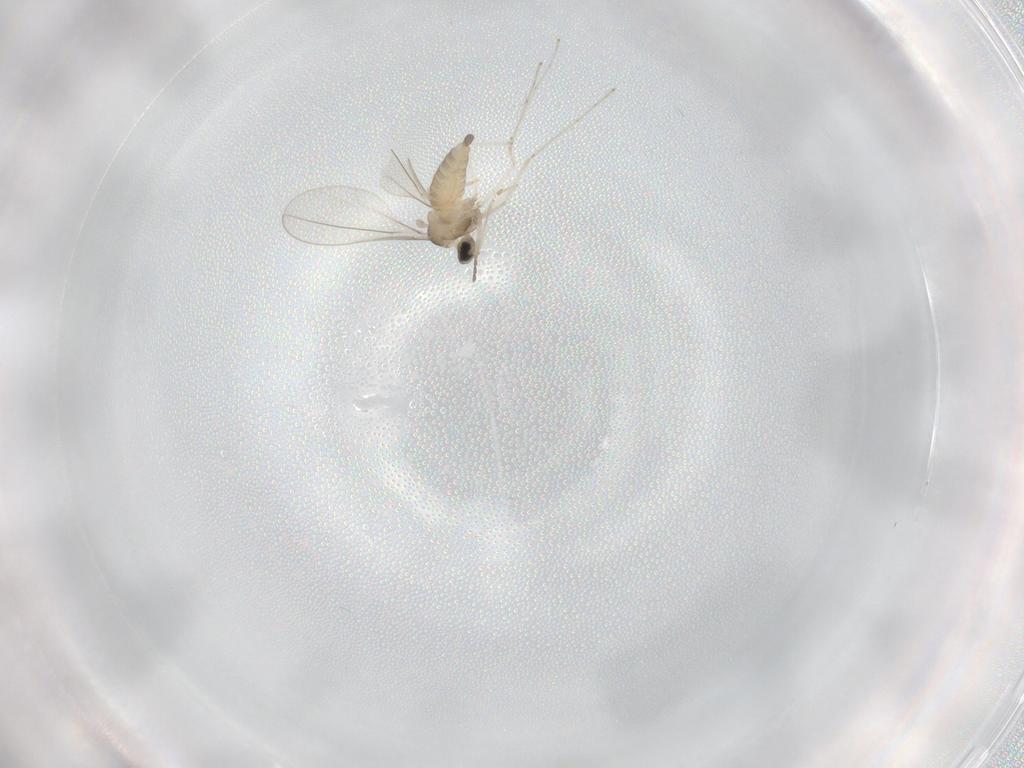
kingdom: Animalia
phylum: Arthropoda
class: Insecta
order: Diptera
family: Cecidomyiidae
